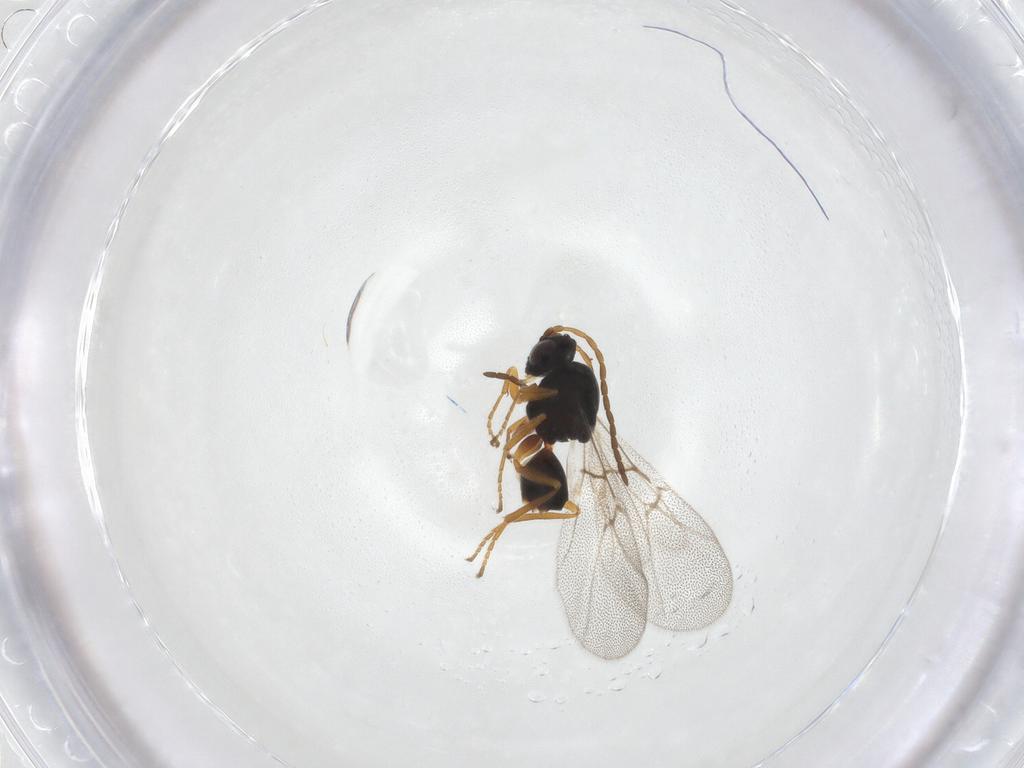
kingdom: Animalia
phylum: Arthropoda
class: Insecta
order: Hymenoptera
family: Cynipidae
